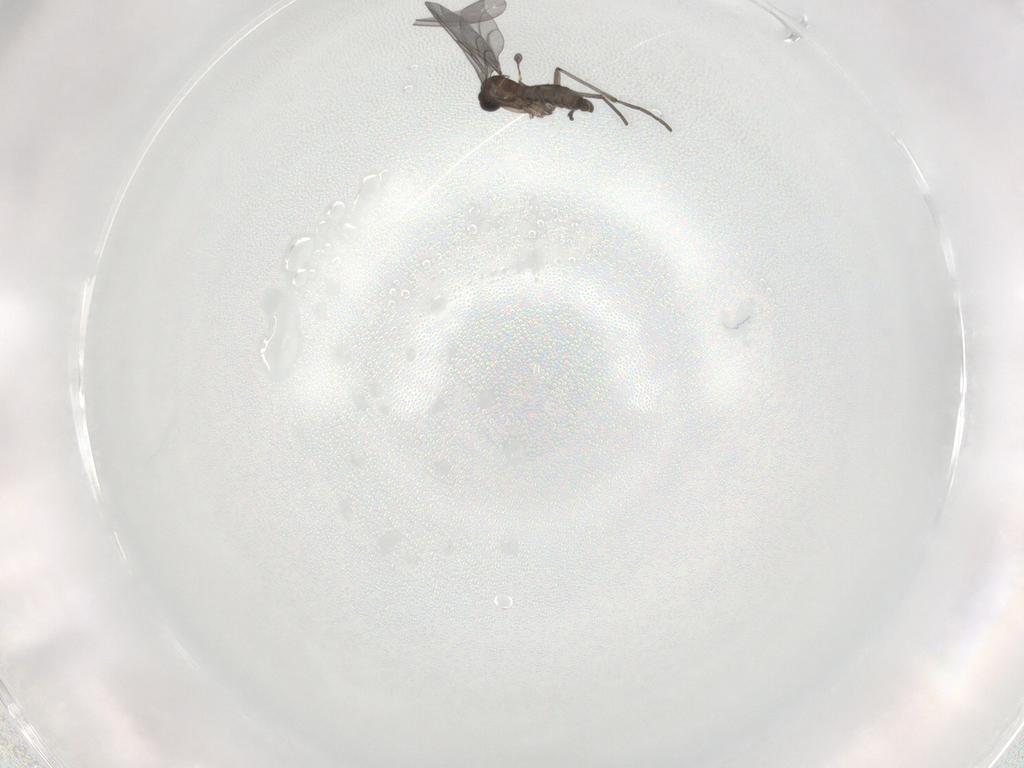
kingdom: Animalia
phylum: Arthropoda
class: Insecta
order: Diptera
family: Sciaridae
